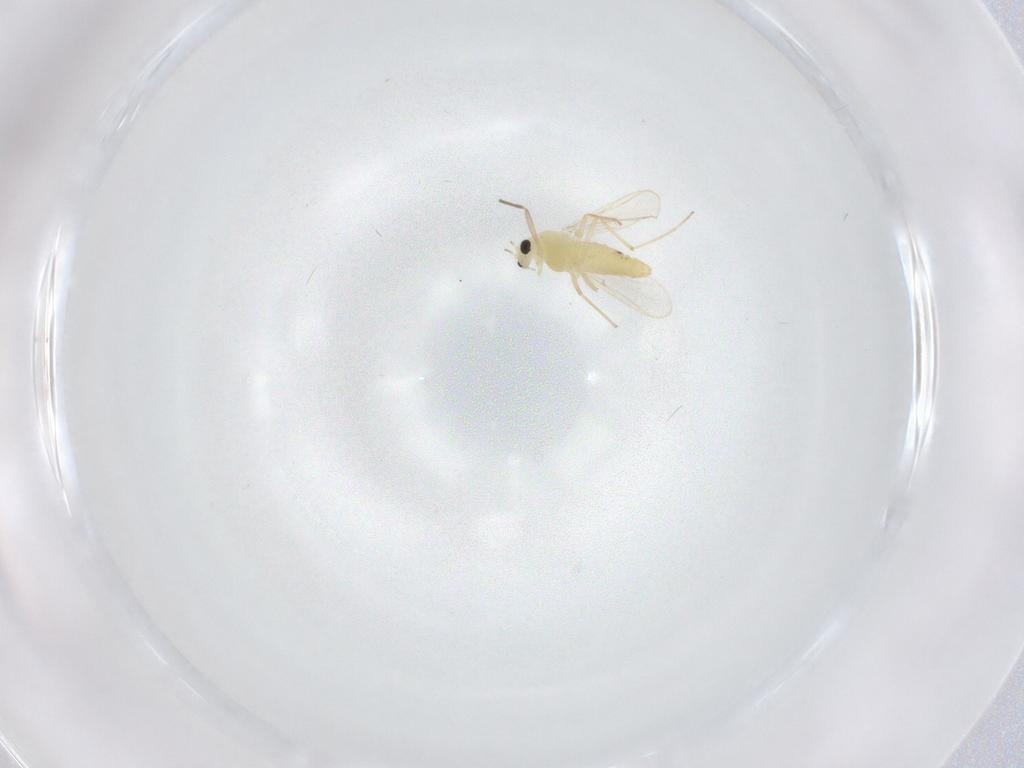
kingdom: Animalia
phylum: Arthropoda
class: Insecta
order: Diptera
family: Chironomidae
